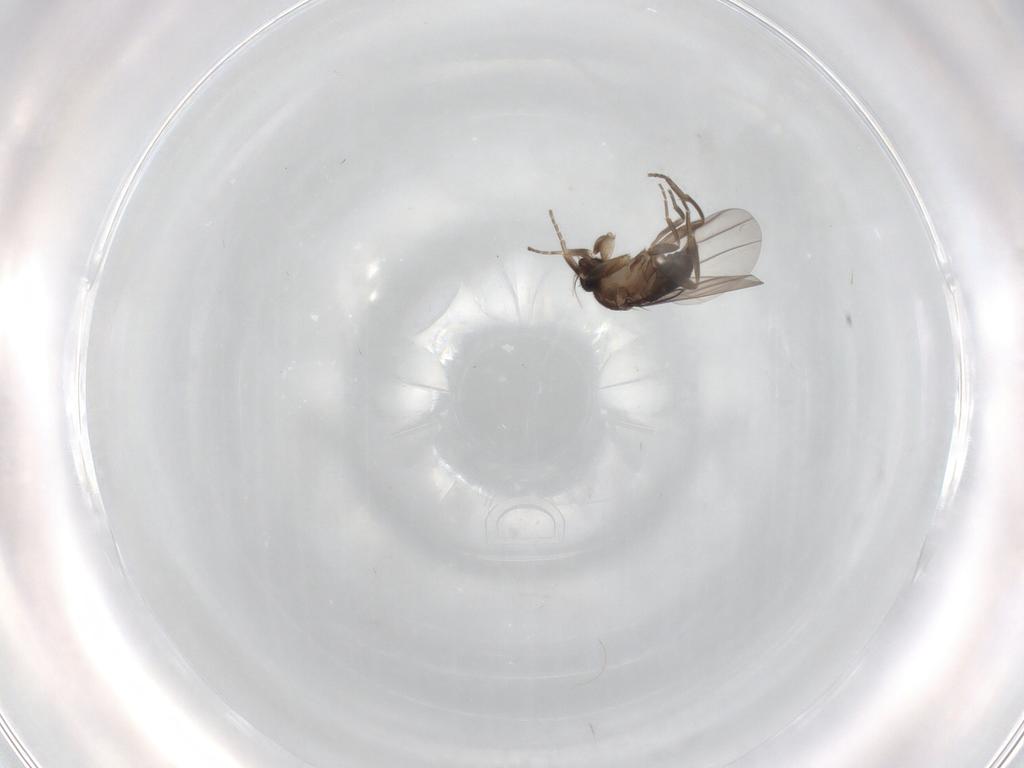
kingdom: Animalia
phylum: Arthropoda
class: Insecta
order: Diptera
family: Phoridae
